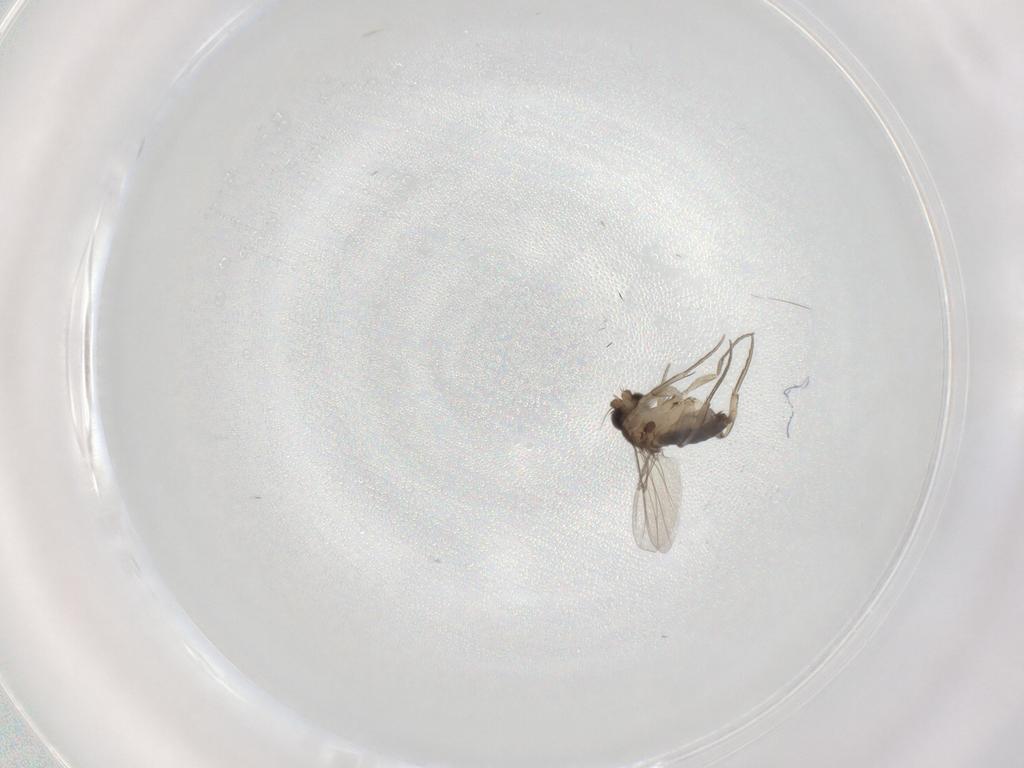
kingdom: Animalia
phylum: Arthropoda
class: Insecta
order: Diptera
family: Phoridae
